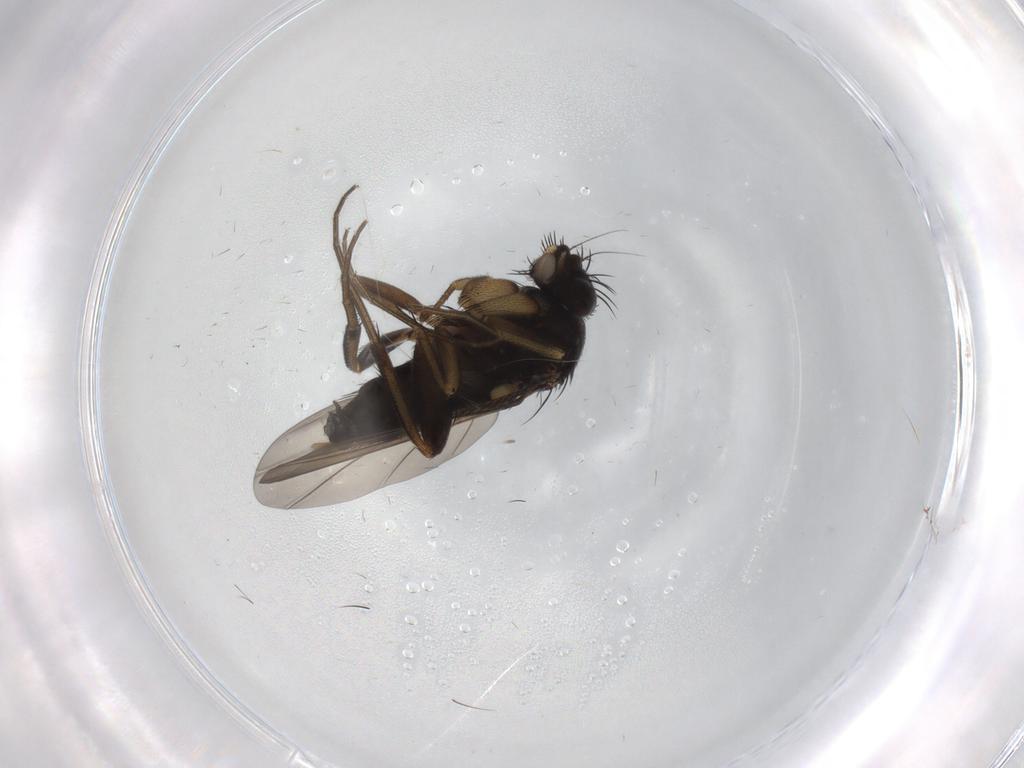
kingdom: Animalia
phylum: Arthropoda
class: Insecta
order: Diptera
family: Phoridae
